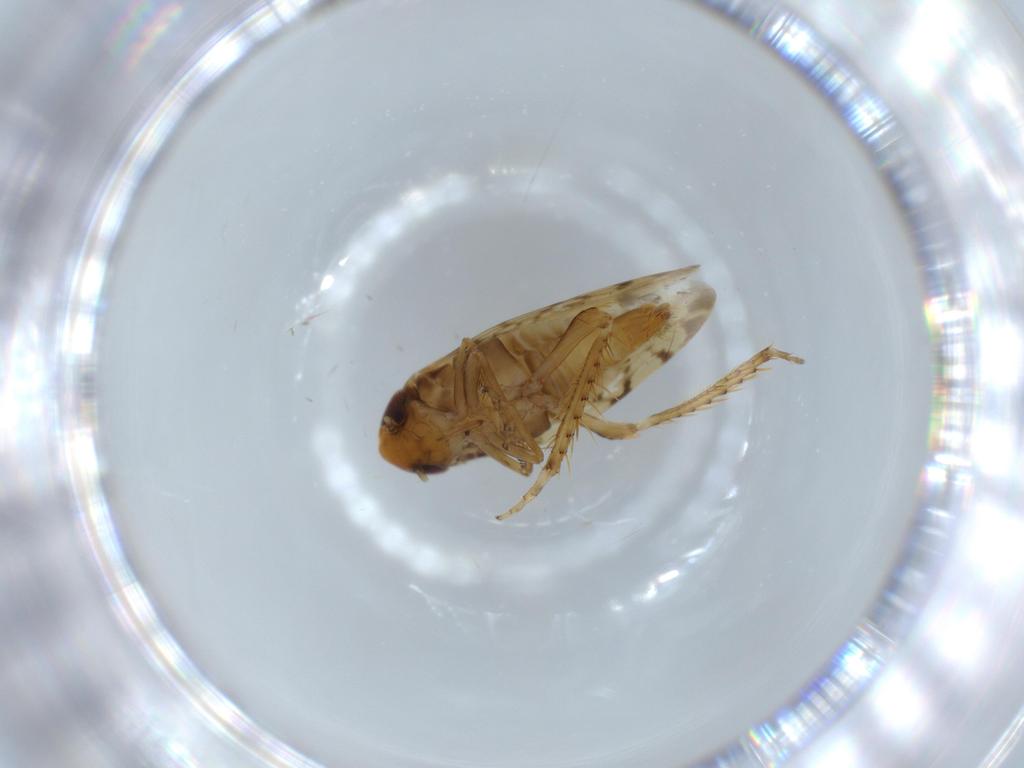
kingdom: Animalia
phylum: Arthropoda
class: Insecta
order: Hemiptera
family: Cicadellidae
